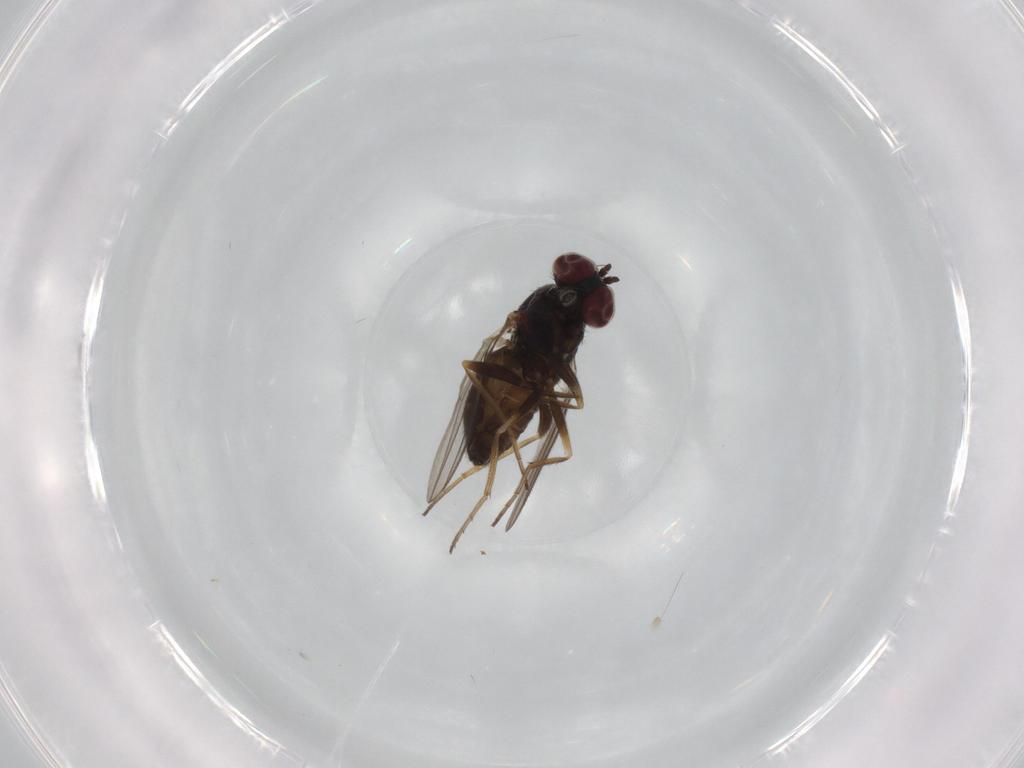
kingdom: Animalia
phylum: Arthropoda
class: Insecta
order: Diptera
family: Dolichopodidae
